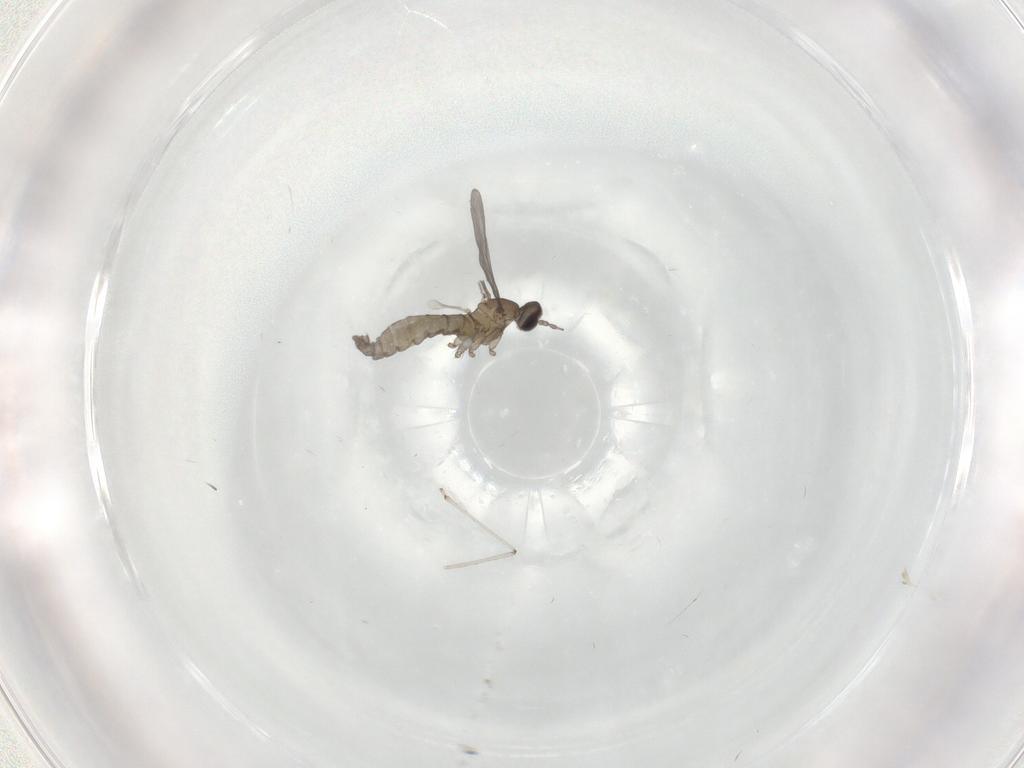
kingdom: Animalia
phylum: Arthropoda
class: Insecta
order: Diptera
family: Cecidomyiidae
